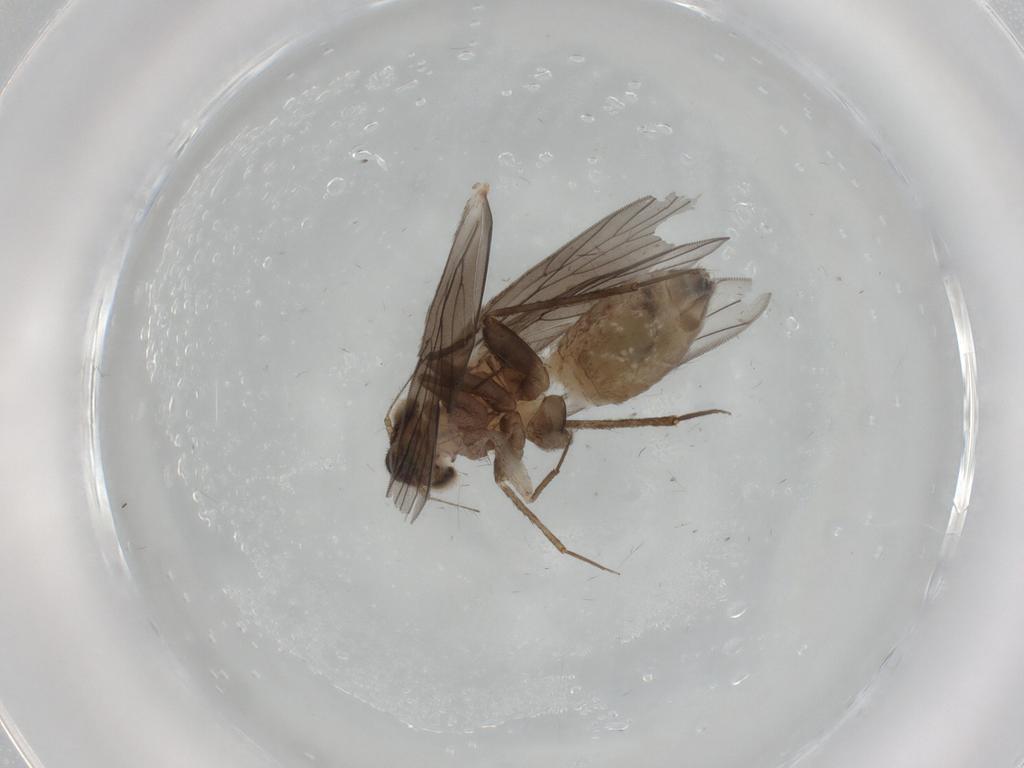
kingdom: Animalia
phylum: Arthropoda
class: Insecta
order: Psocodea
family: Lepidopsocidae
